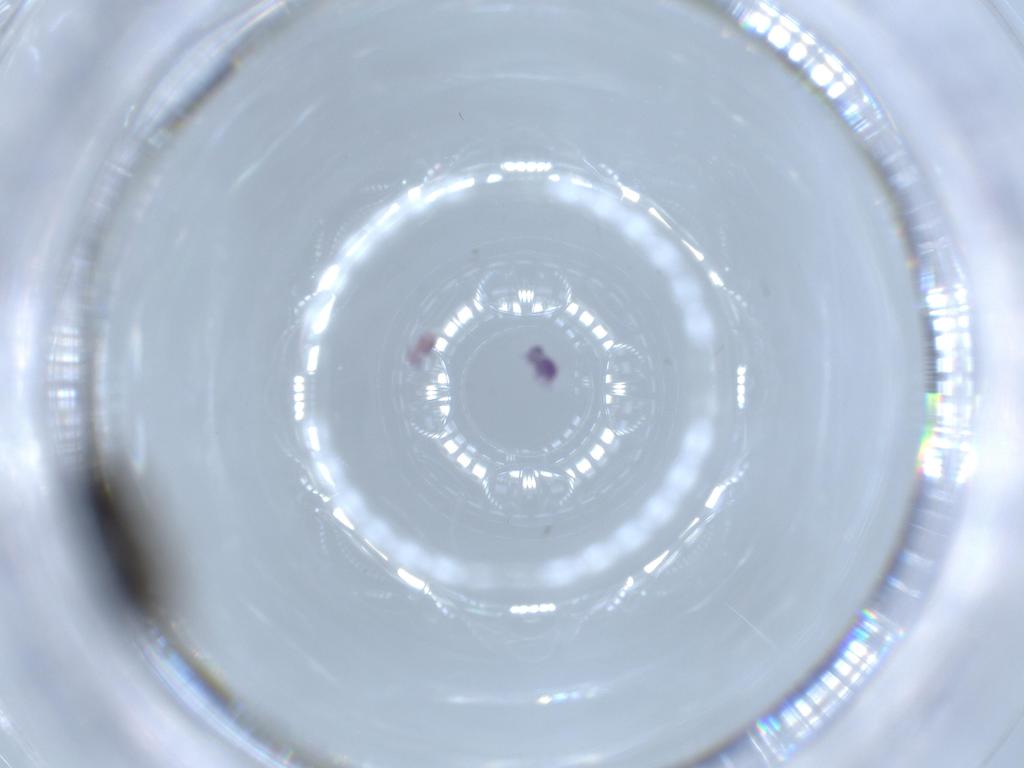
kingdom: Animalia
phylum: Arthropoda
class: Insecta
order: Diptera
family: Sphaeroceridae
